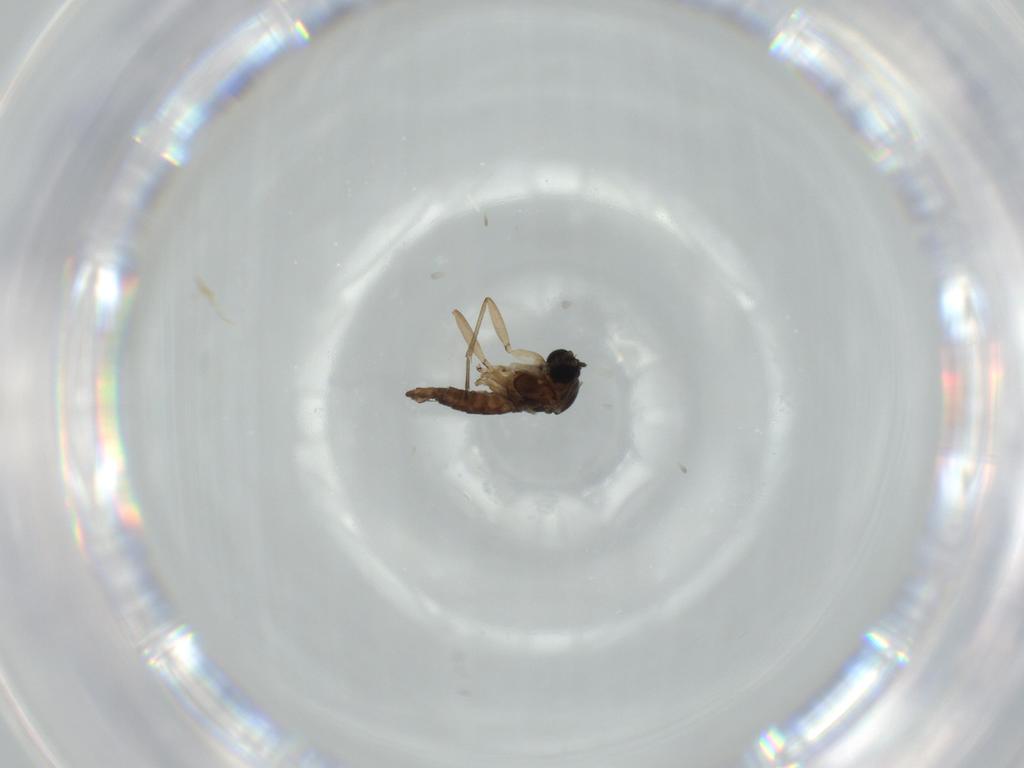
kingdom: Animalia
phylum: Arthropoda
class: Insecta
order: Diptera
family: Sciaridae
